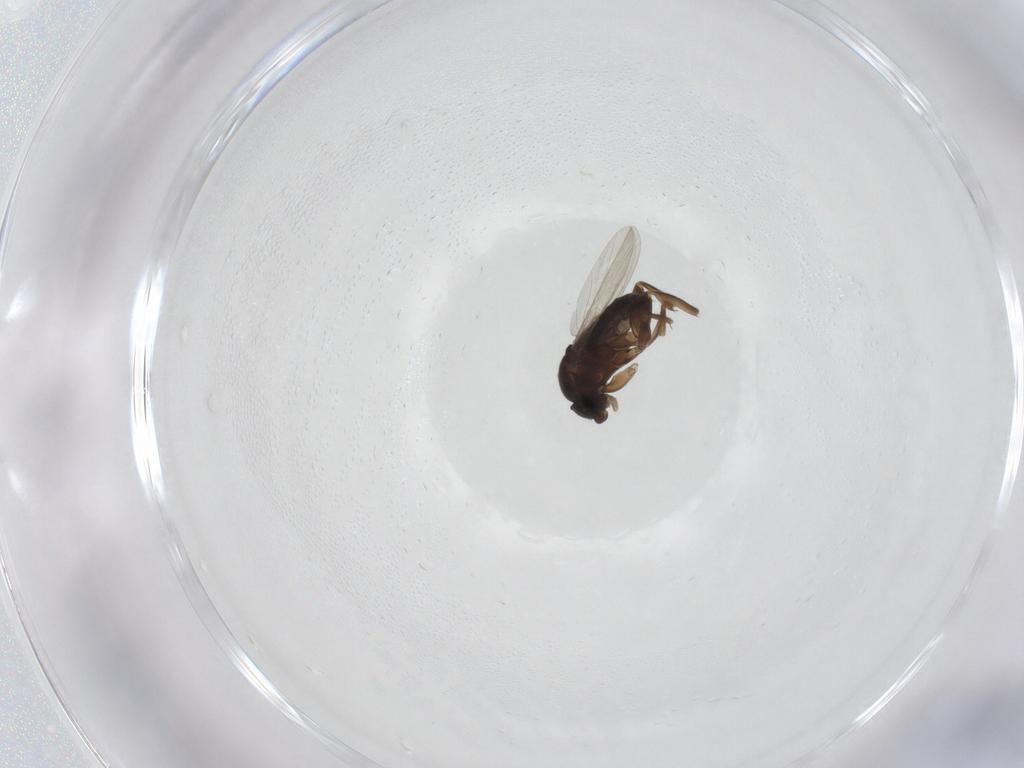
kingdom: Animalia
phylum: Arthropoda
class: Insecta
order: Diptera
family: Phoridae
